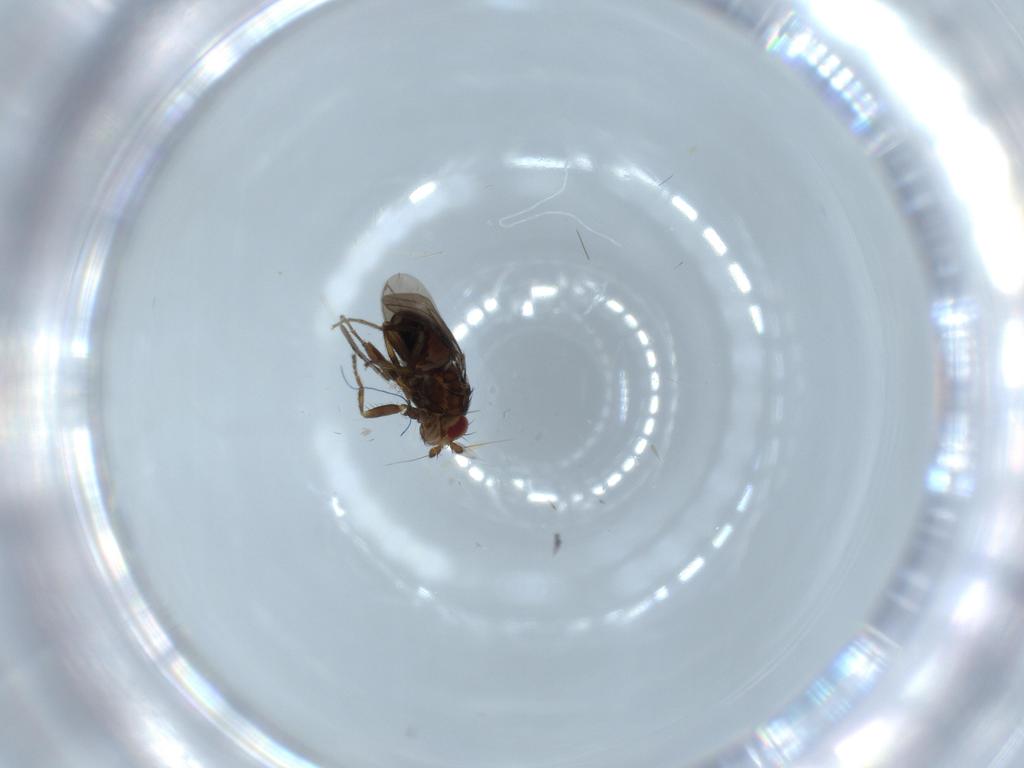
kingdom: Animalia
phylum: Arthropoda
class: Insecta
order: Diptera
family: Sphaeroceridae
